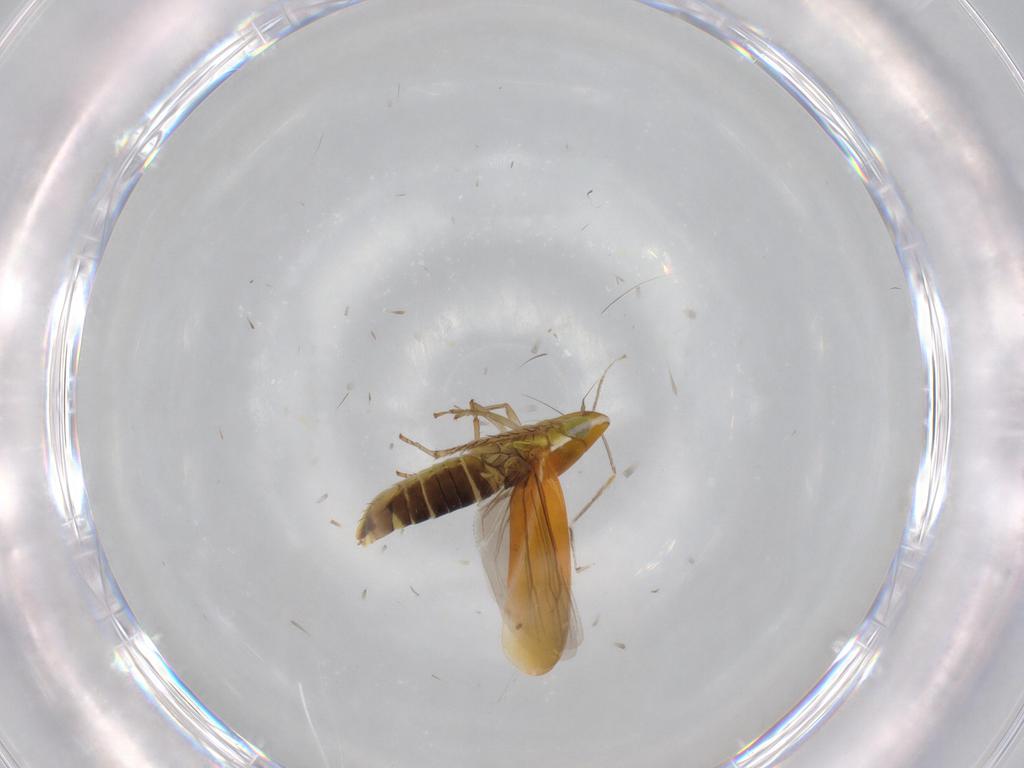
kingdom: Animalia
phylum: Arthropoda
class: Insecta
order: Hemiptera
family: Cicadellidae
